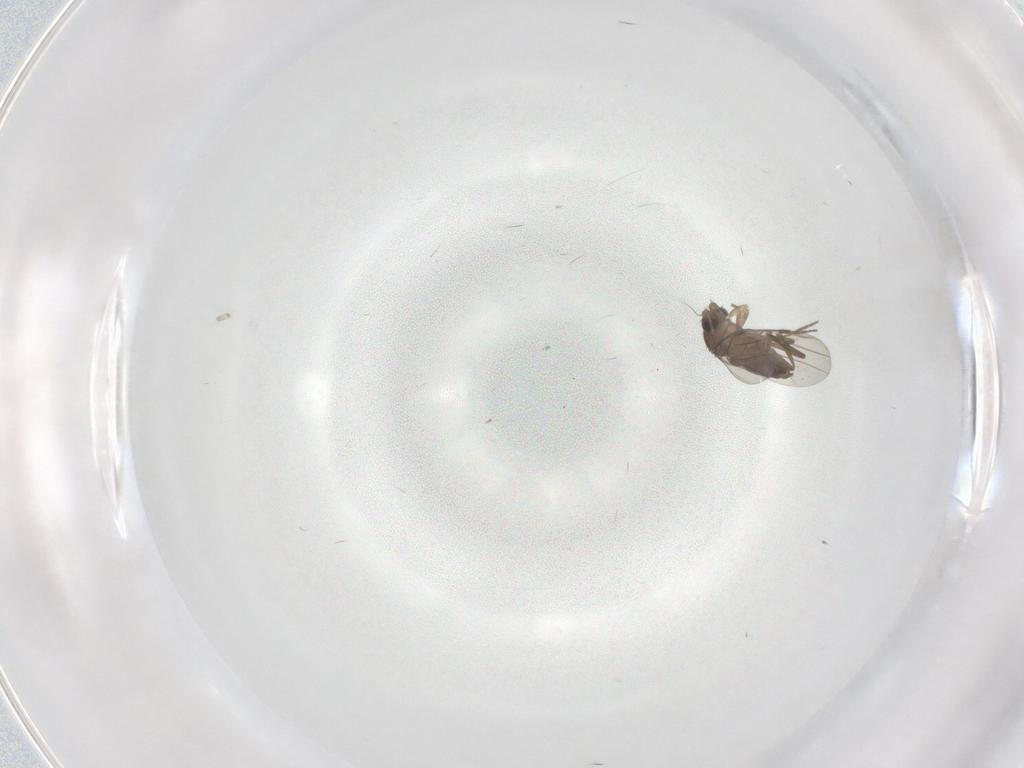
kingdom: Animalia
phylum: Arthropoda
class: Insecta
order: Diptera
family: Phoridae
